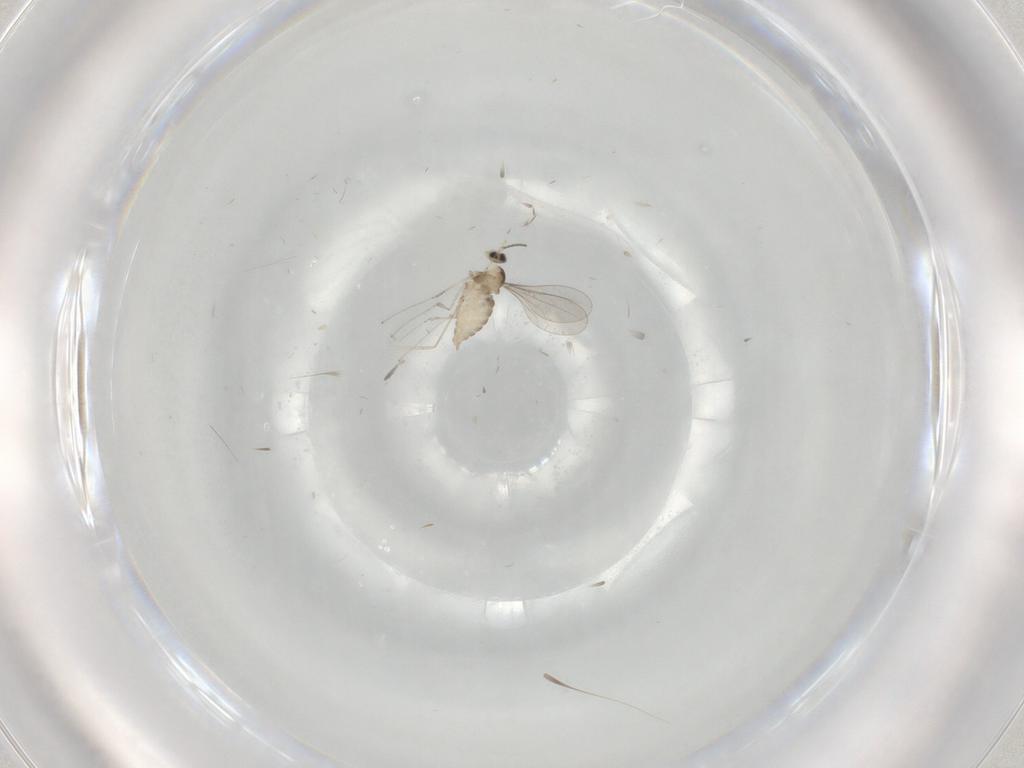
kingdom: Animalia
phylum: Arthropoda
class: Insecta
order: Diptera
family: Cecidomyiidae
